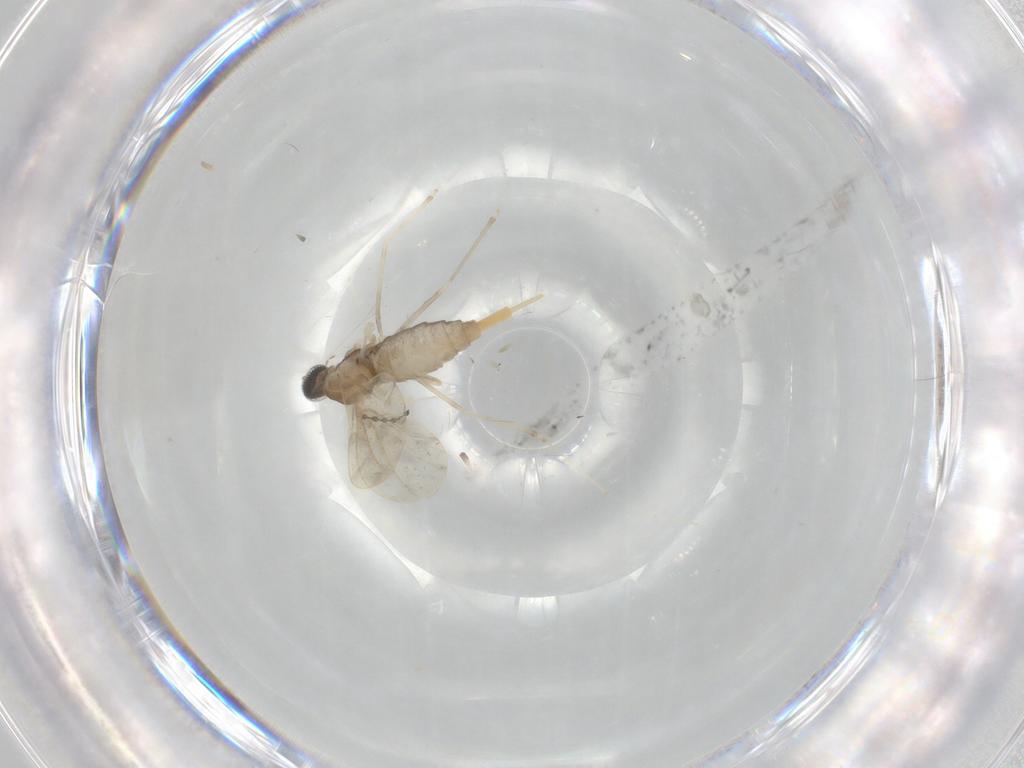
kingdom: Animalia
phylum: Arthropoda
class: Insecta
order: Diptera
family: Cecidomyiidae
